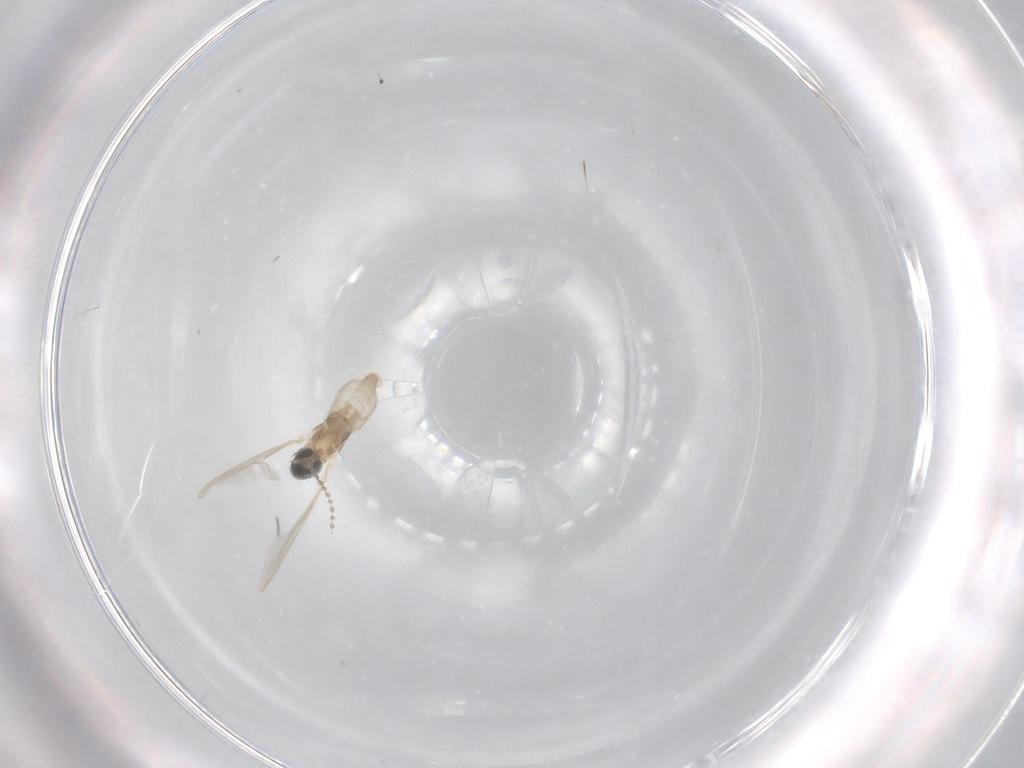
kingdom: Animalia
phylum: Arthropoda
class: Insecta
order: Diptera
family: Cecidomyiidae
